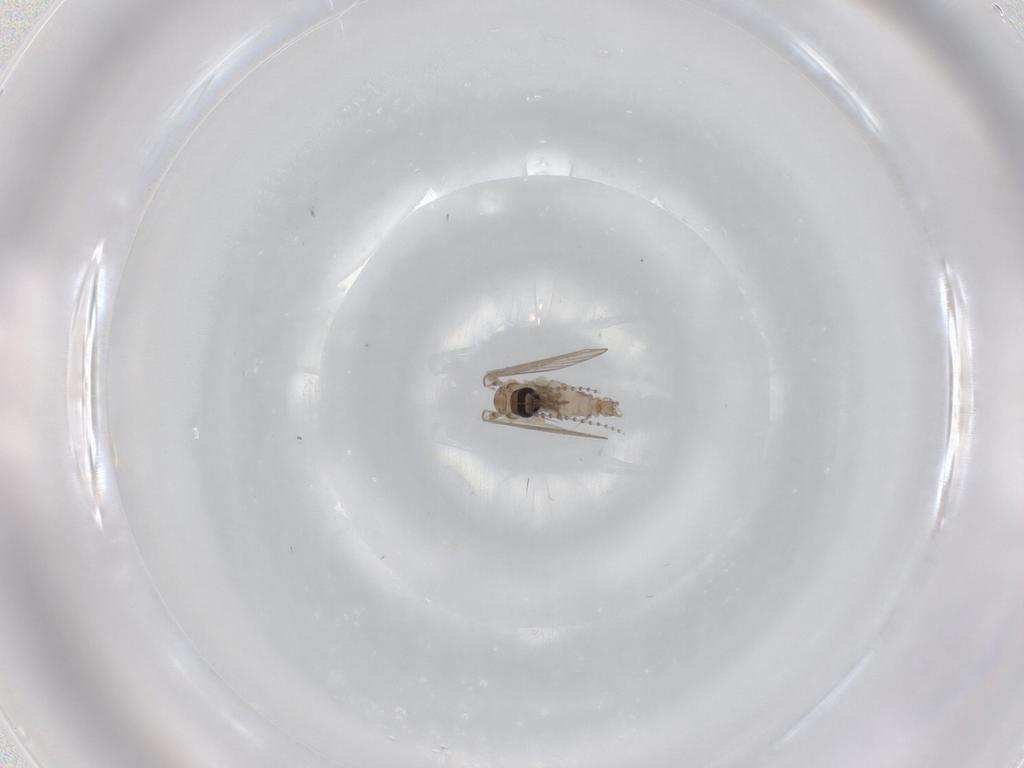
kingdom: Animalia
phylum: Arthropoda
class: Insecta
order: Diptera
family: Psychodidae
